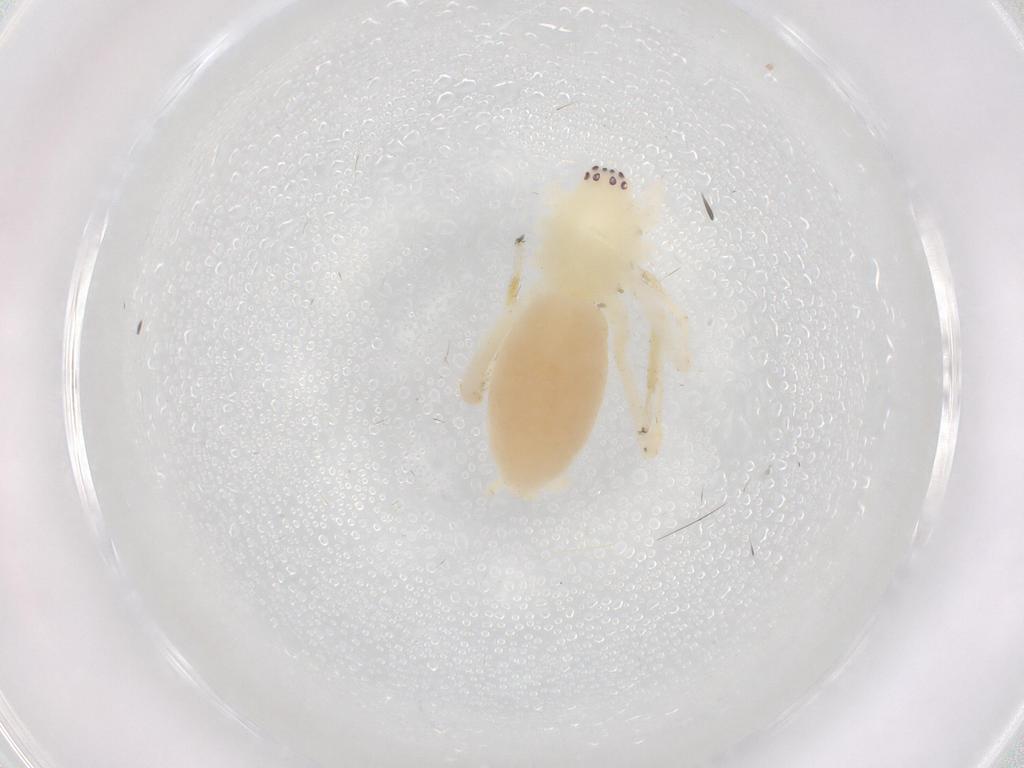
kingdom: Animalia
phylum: Arthropoda
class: Arachnida
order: Araneae
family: Anyphaenidae
